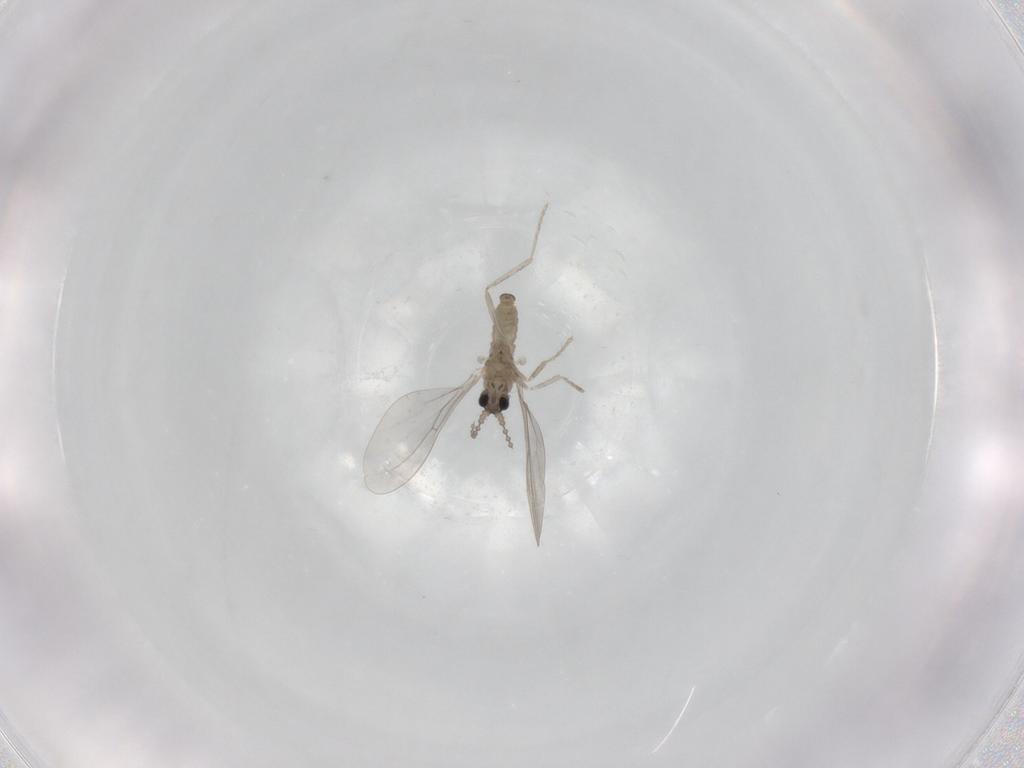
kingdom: Animalia
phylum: Arthropoda
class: Insecta
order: Diptera
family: Cecidomyiidae
